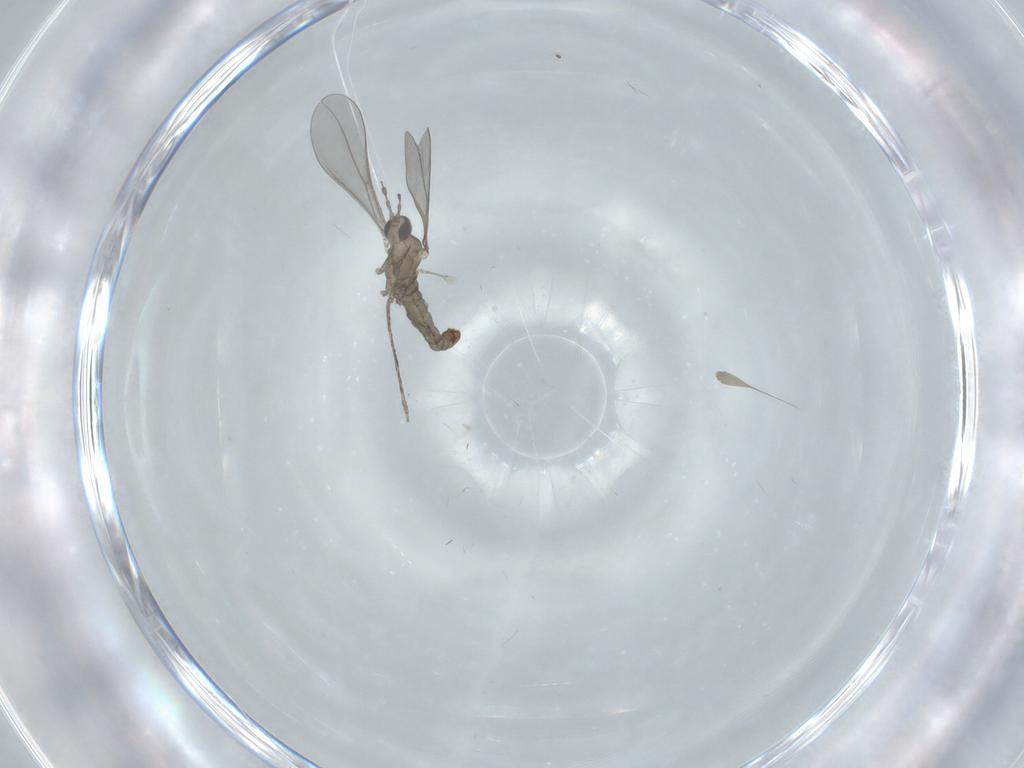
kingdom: Animalia
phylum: Arthropoda
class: Insecta
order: Diptera
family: Cecidomyiidae
